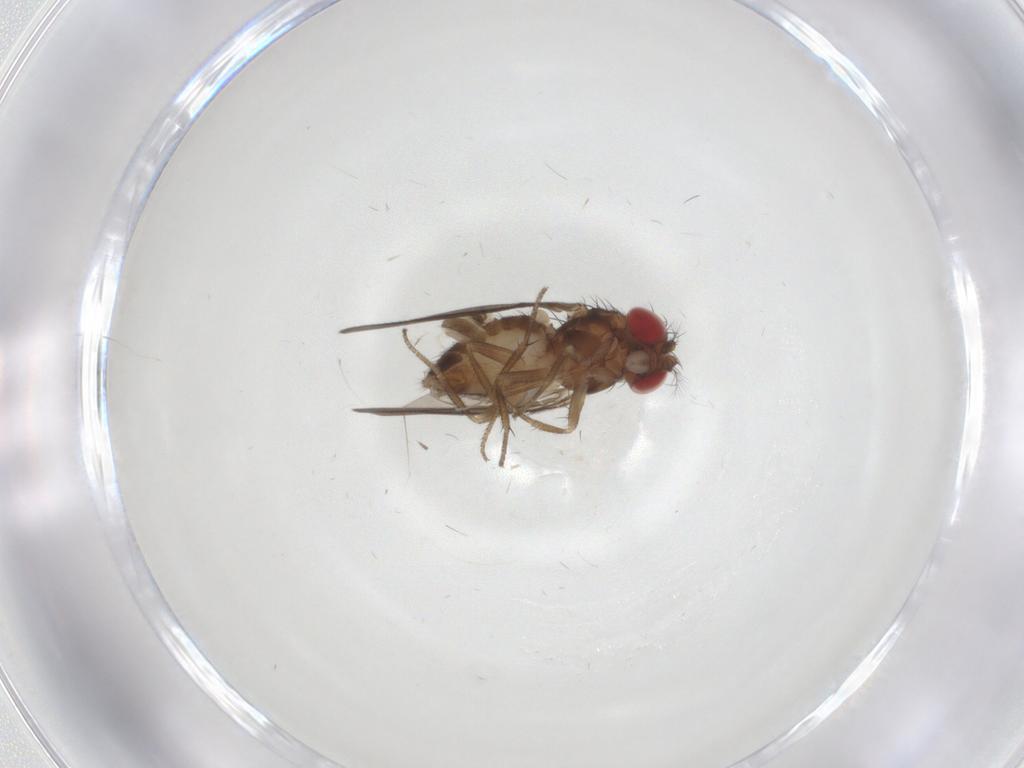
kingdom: Animalia
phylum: Arthropoda
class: Insecta
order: Diptera
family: Drosophilidae
